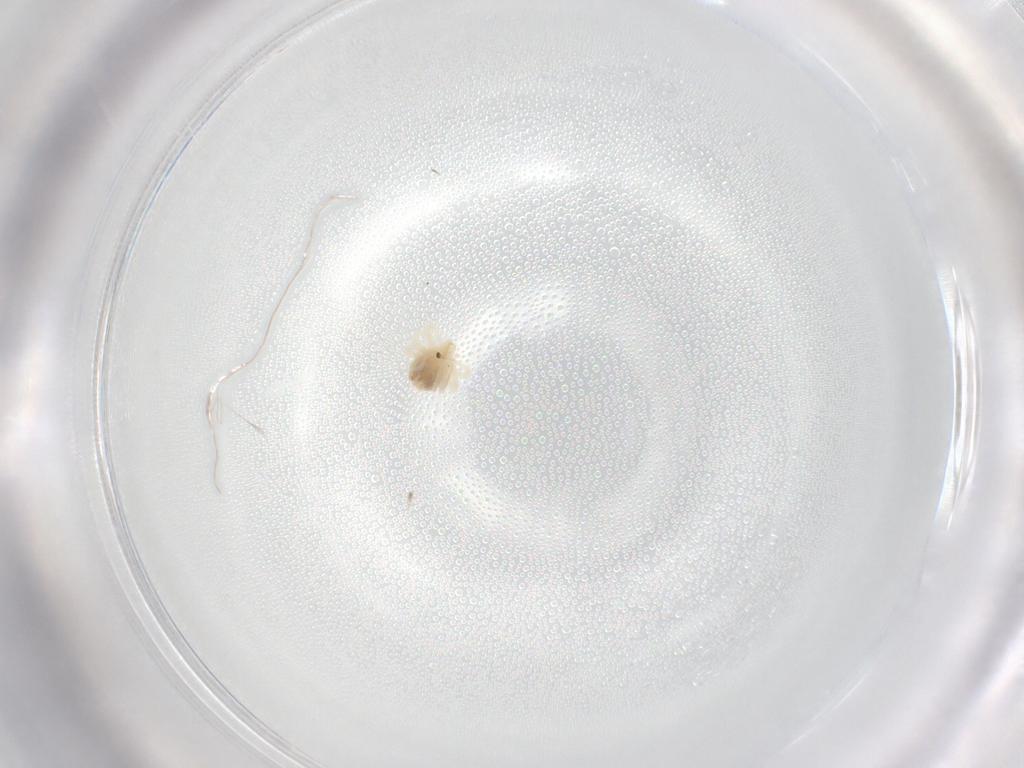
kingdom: Animalia
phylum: Arthropoda
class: Arachnida
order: Trombidiformes
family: Anystidae
